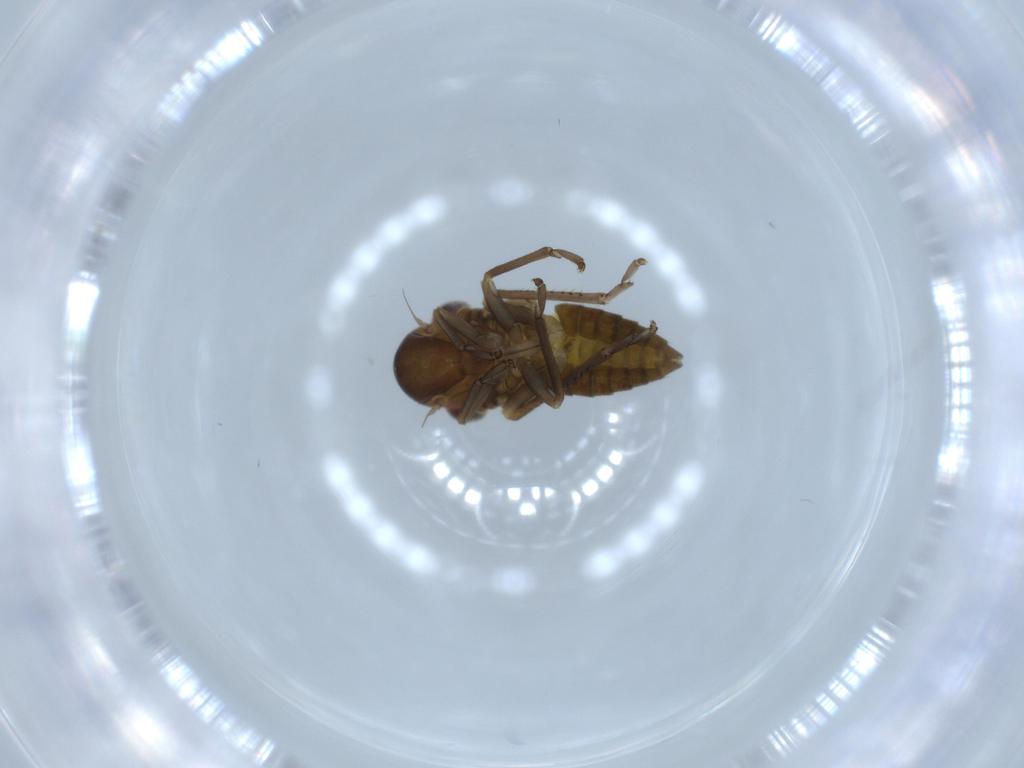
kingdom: Animalia
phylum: Arthropoda
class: Insecta
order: Hemiptera
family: Cicadellidae
